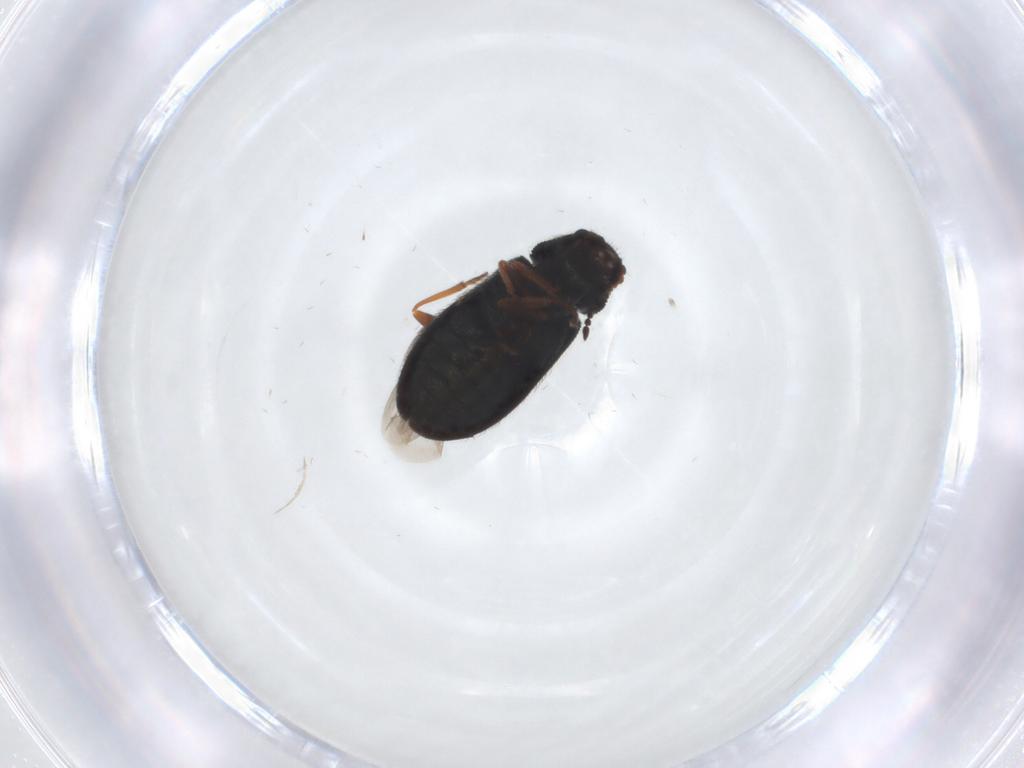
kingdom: Animalia
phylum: Arthropoda
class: Insecta
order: Coleoptera
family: Melyridae
